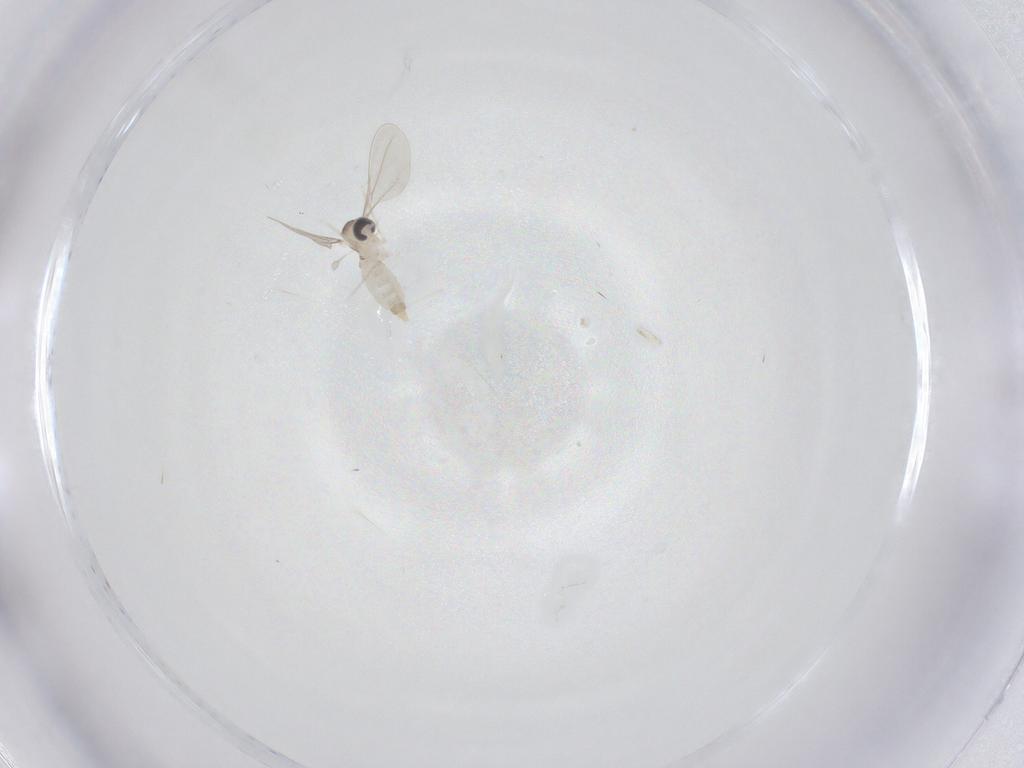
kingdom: Animalia
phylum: Arthropoda
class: Insecta
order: Diptera
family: Cecidomyiidae
